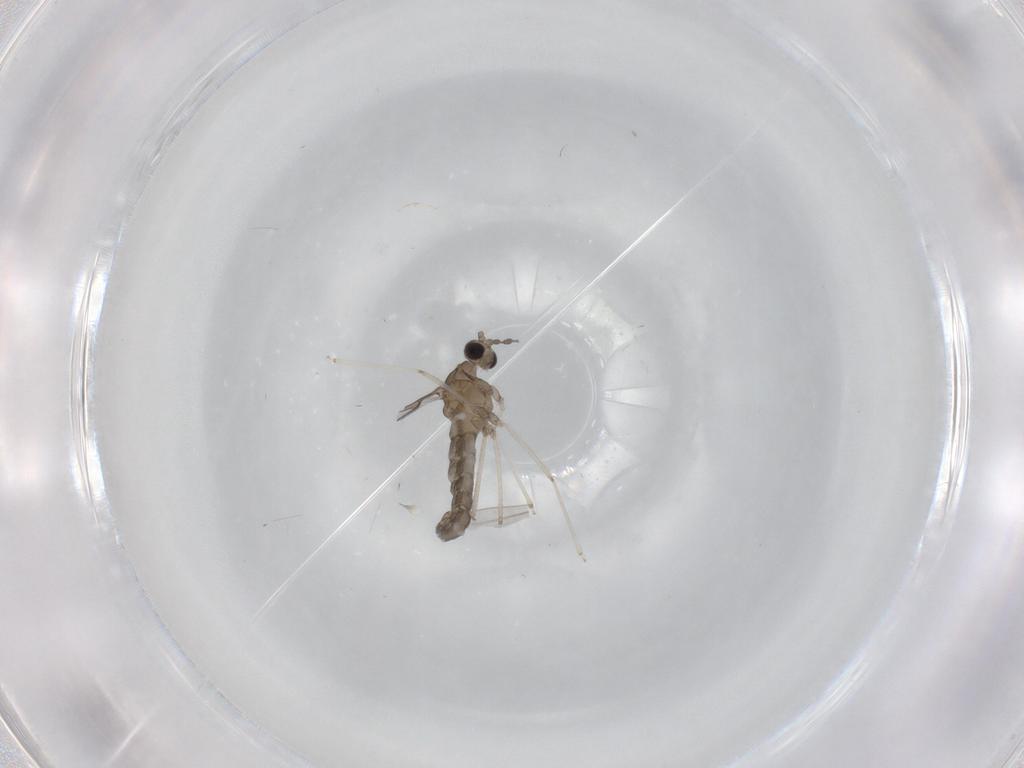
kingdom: Animalia
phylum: Arthropoda
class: Insecta
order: Diptera
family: Cecidomyiidae
